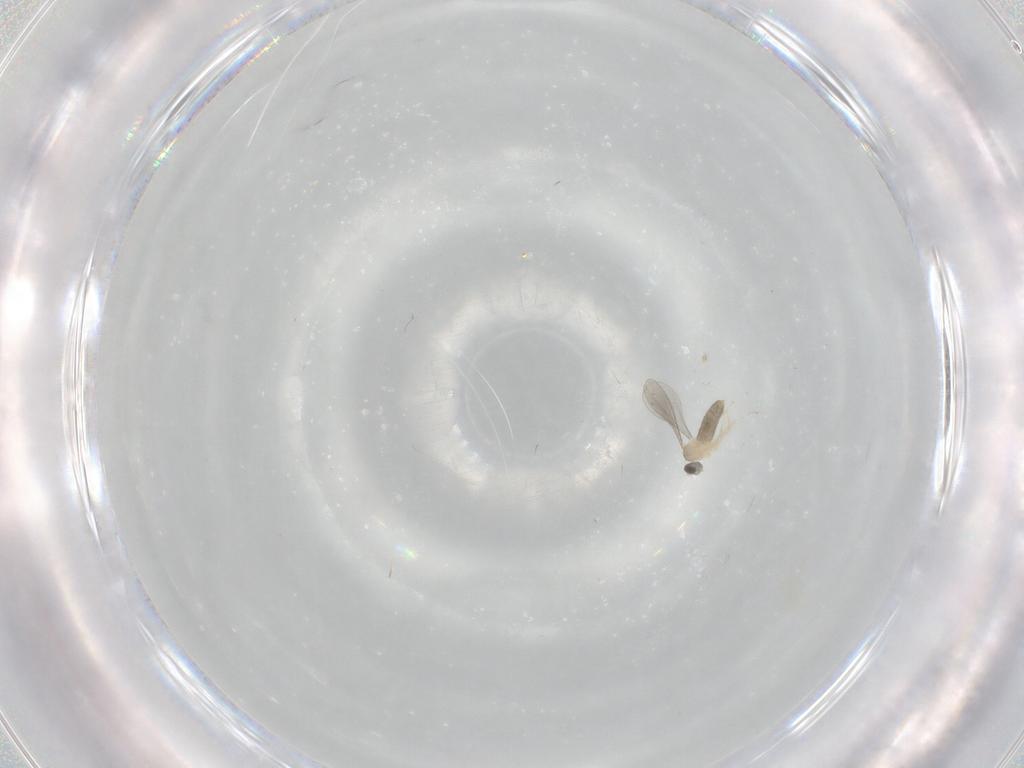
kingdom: Animalia
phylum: Arthropoda
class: Insecta
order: Diptera
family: Cecidomyiidae
